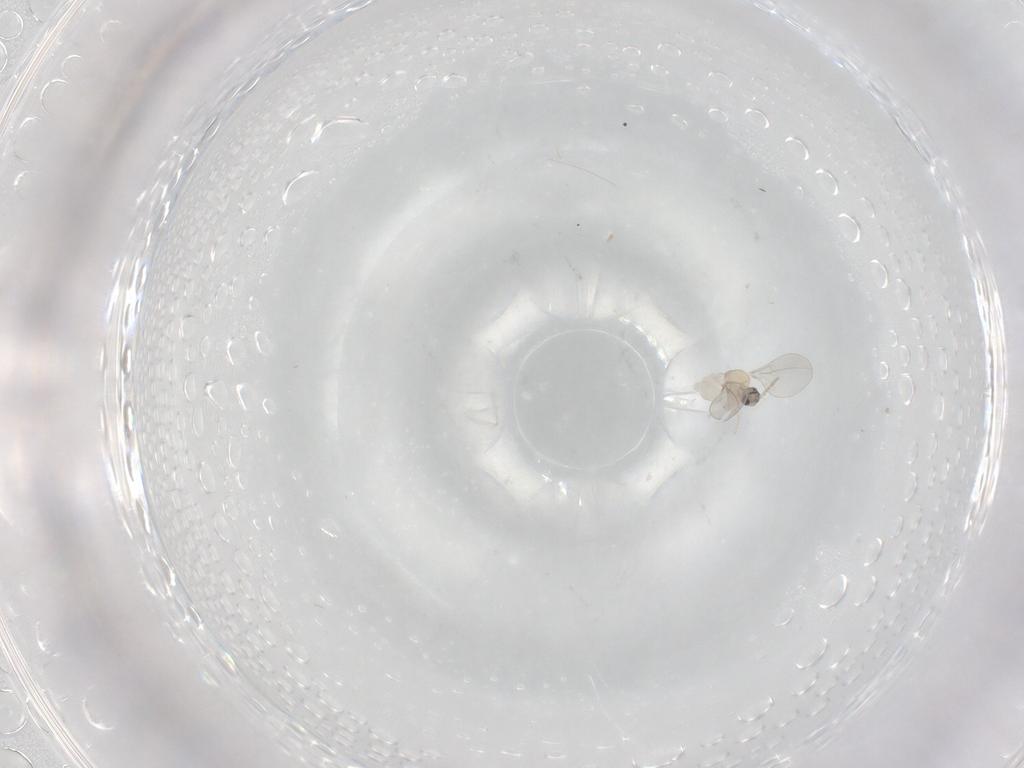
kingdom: Animalia
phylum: Arthropoda
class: Insecta
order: Diptera
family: Cecidomyiidae
